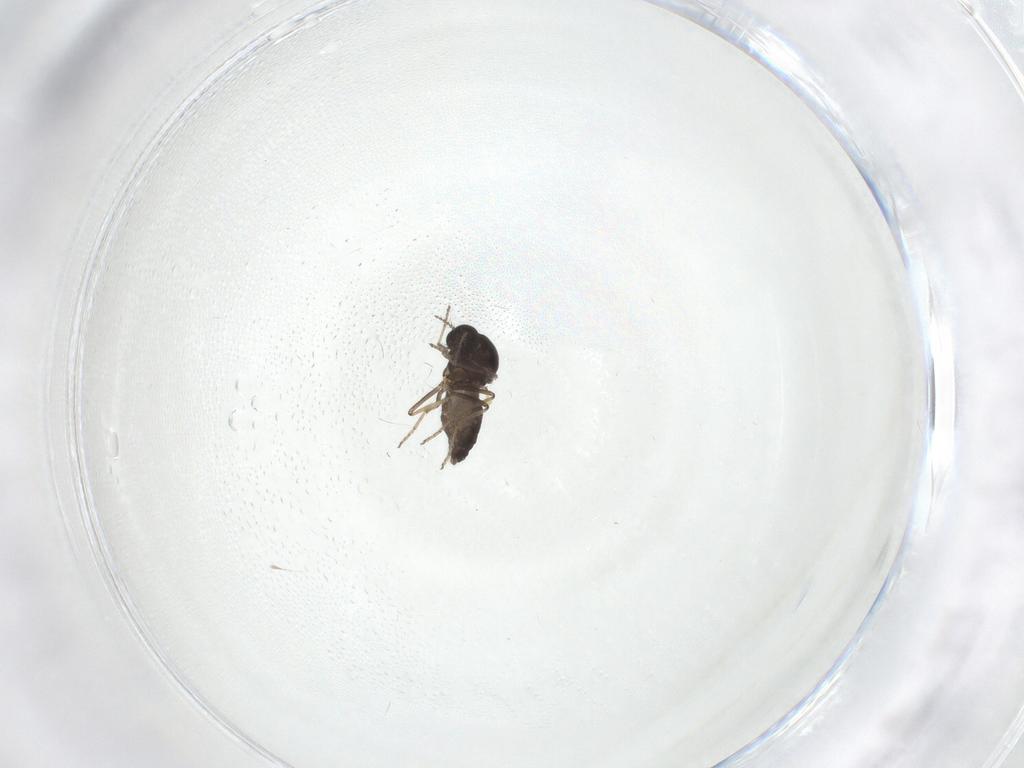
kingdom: Animalia
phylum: Arthropoda
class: Insecta
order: Diptera
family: Ceratopogonidae
